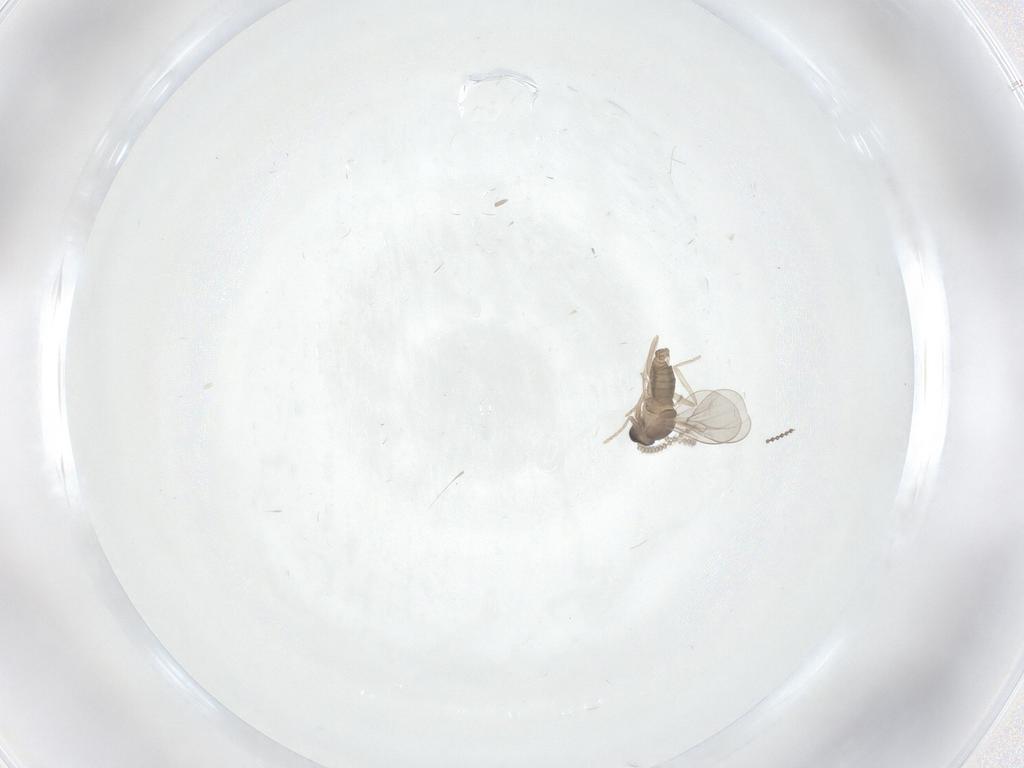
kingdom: Animalia
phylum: Arthropoda
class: Insecta
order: Diptera
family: Cecidomyiidae
